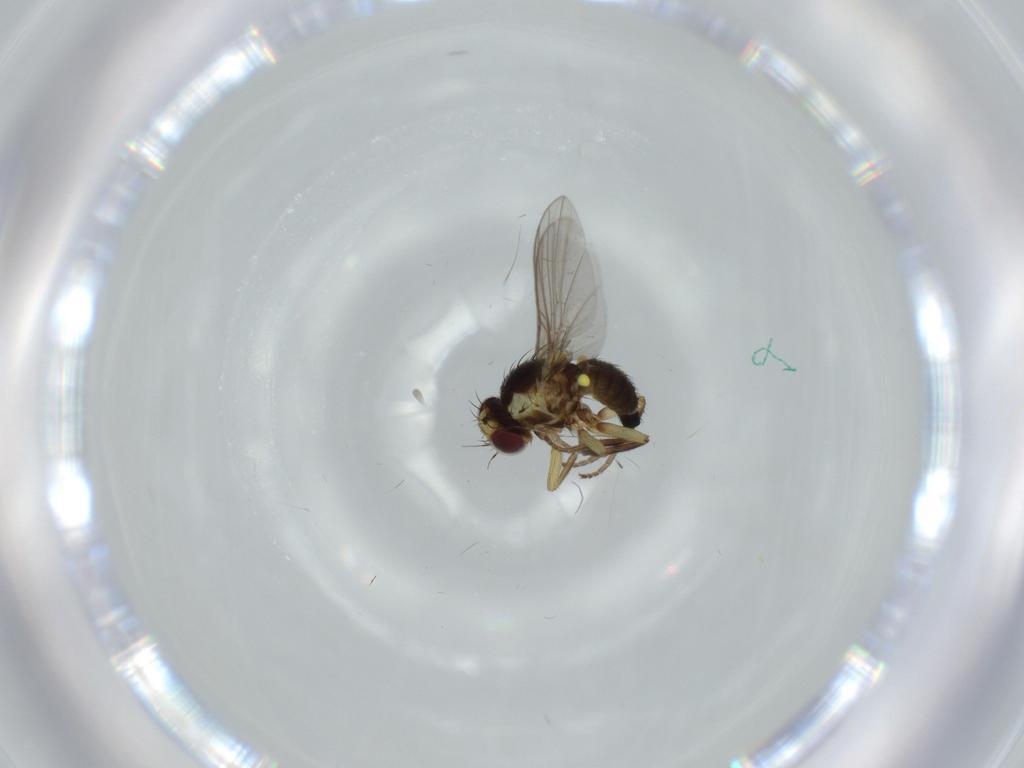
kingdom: Animalia
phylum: Arthropoda
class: Insecta
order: Diptera
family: Agromyzidae
